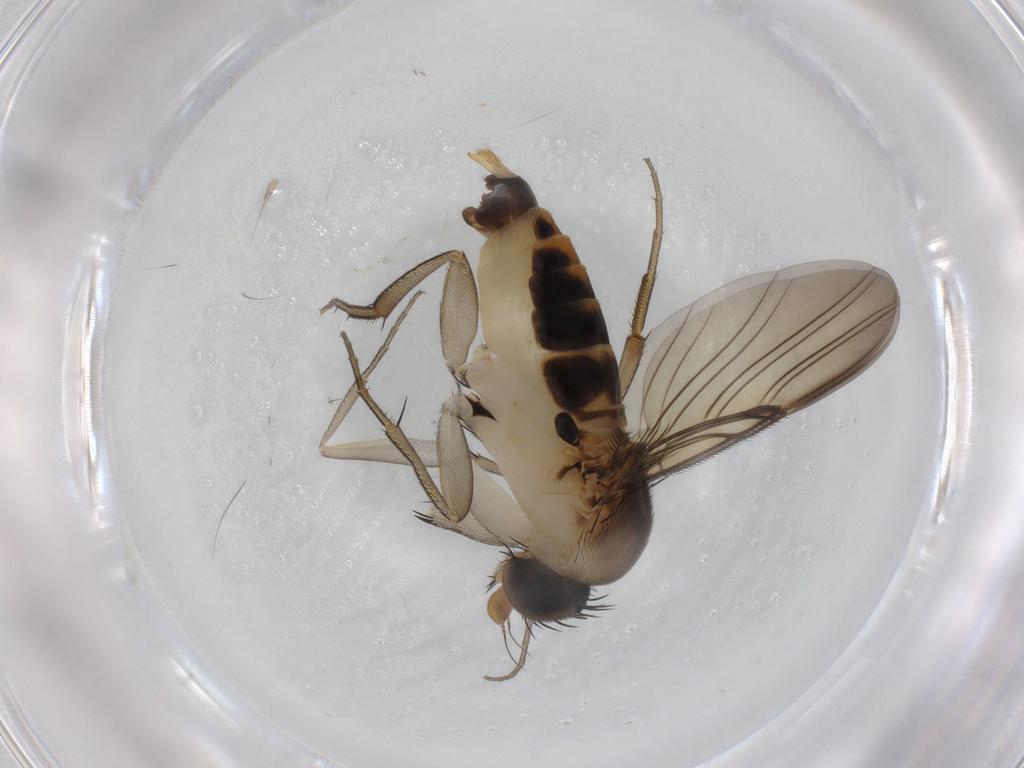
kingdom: Animalia
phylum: Arthropoda
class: Insecta
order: Diptera
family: Phoridae
